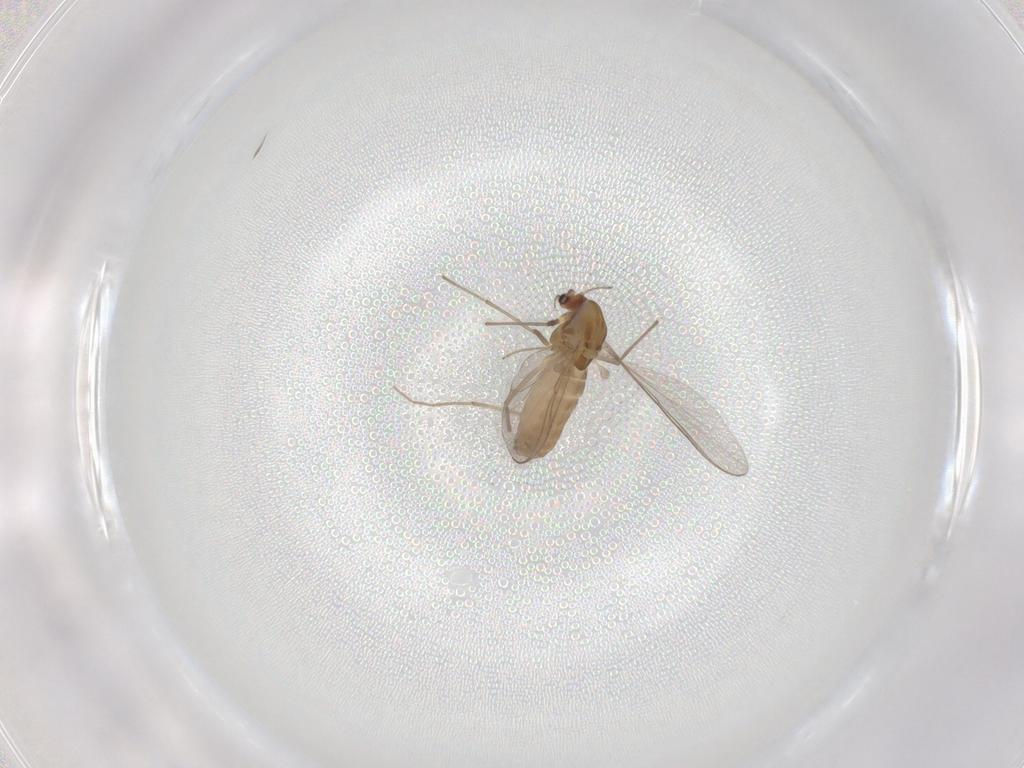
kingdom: Animalia
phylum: Arthropoda
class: Insecta
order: Diptera
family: Chironomidae
